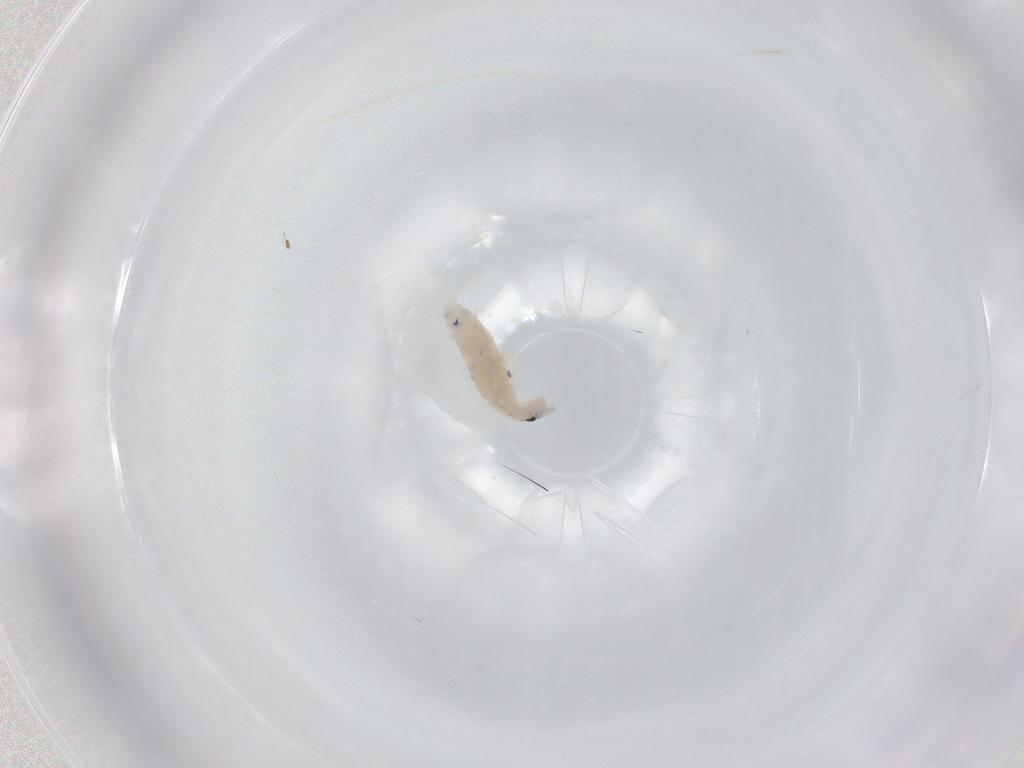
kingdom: Animalia
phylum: Arthropoda
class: Collembola
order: Entomobryomorpha
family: Entomobryidae
